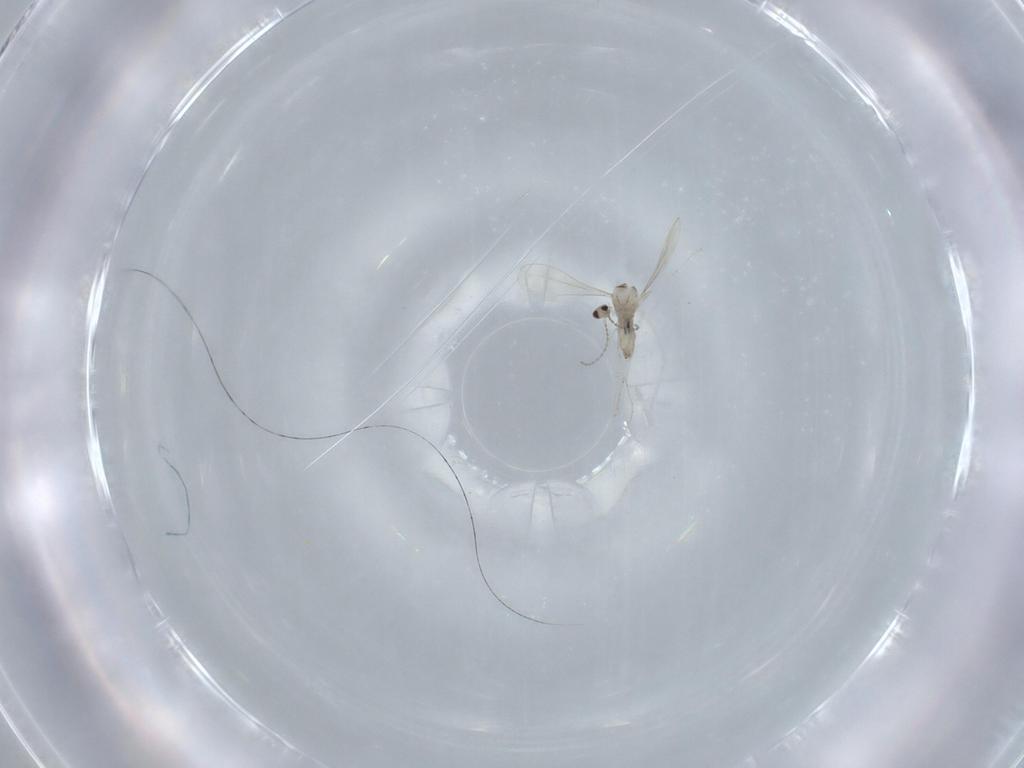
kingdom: Animalia
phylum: Arthropoda
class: Insecta
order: Diptera
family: Cecidomyiidae
